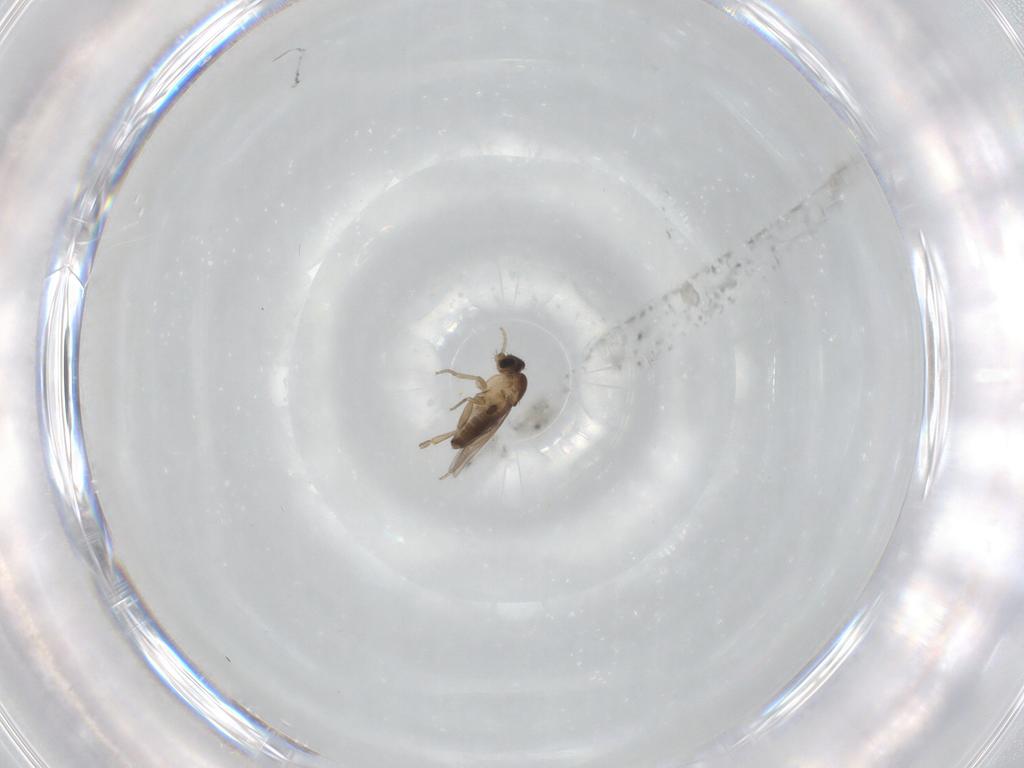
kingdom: Animalia
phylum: Arthropoda
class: Insecta
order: Diptera
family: Phoridae
